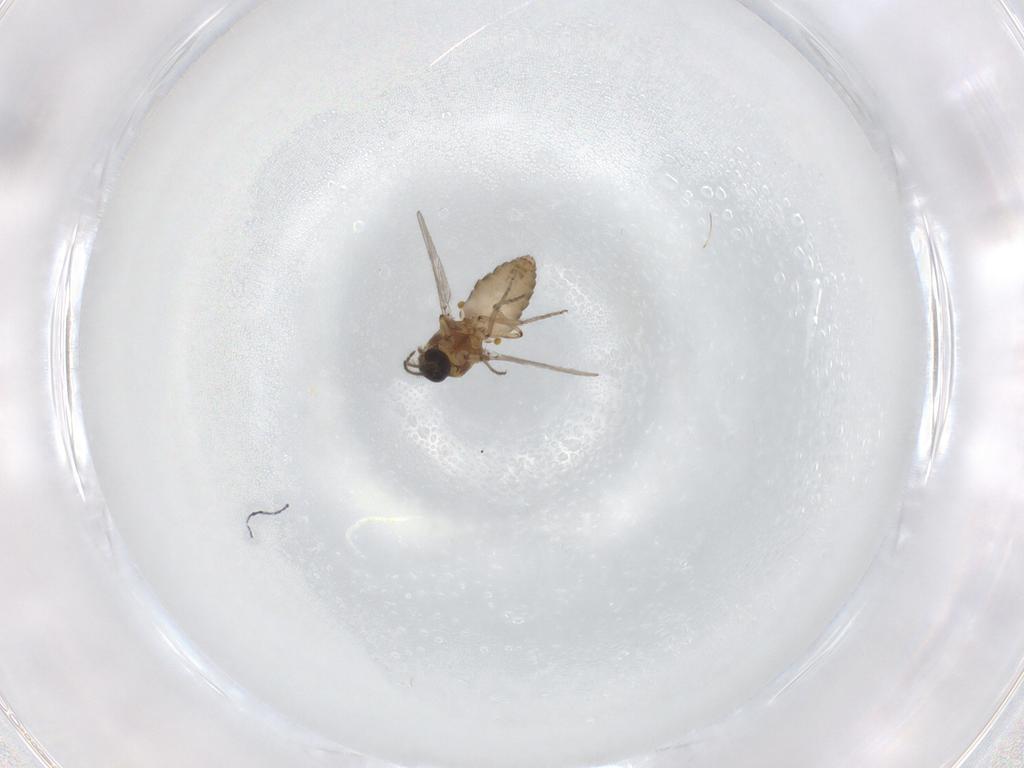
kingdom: Animalia
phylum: Arthropoda
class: Insecta
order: Diptera
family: Ceratopogonidae
